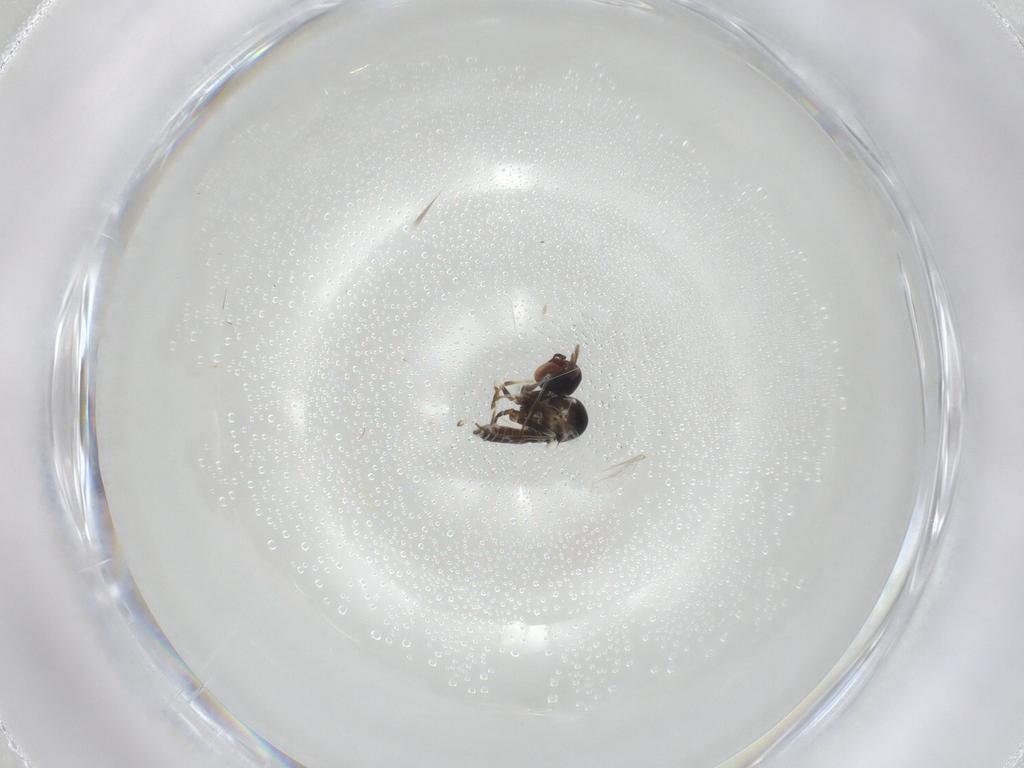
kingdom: Animalia
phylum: Arthropoda
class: Insecta
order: Diptera
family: Bombyliidae
